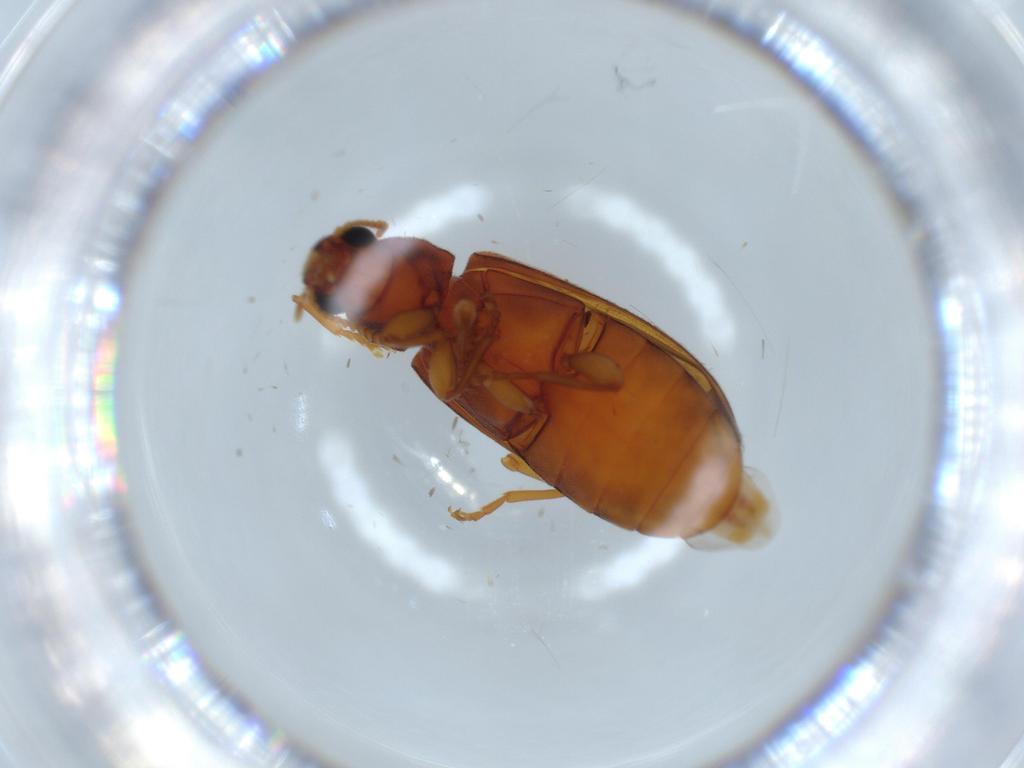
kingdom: Animalia
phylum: Arthropoda
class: Insecta
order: Coleoptera
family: Mycteridae
